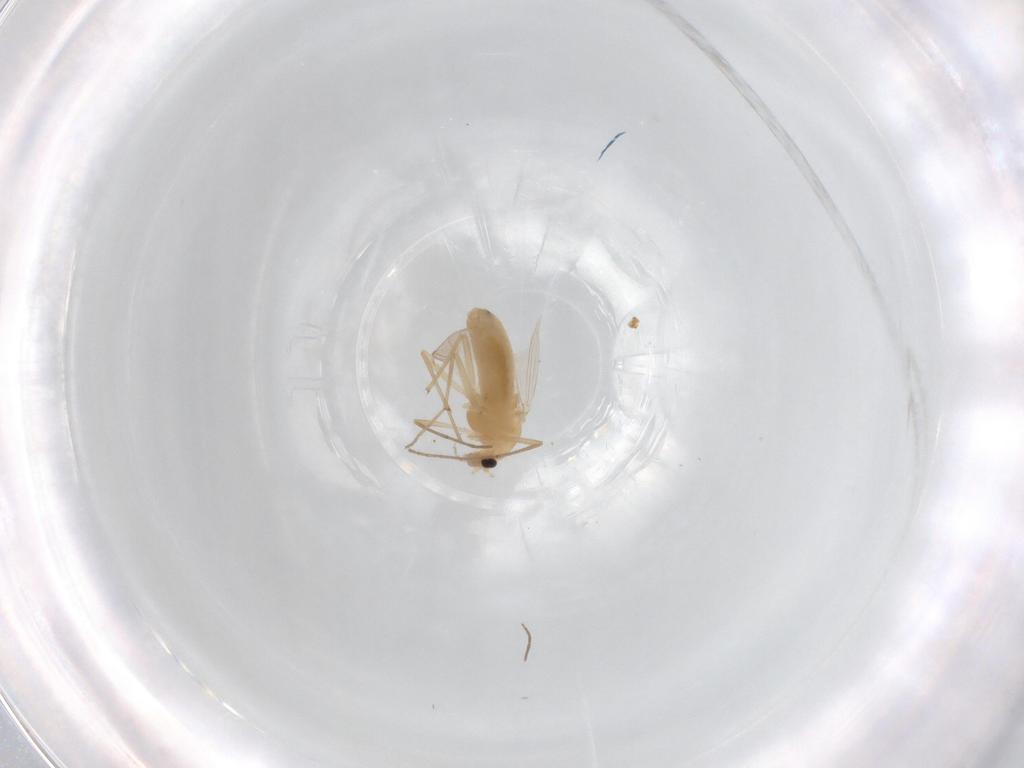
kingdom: Animalia
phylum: Arthropoda
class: Insecta
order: Diptera
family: Chironomidae
